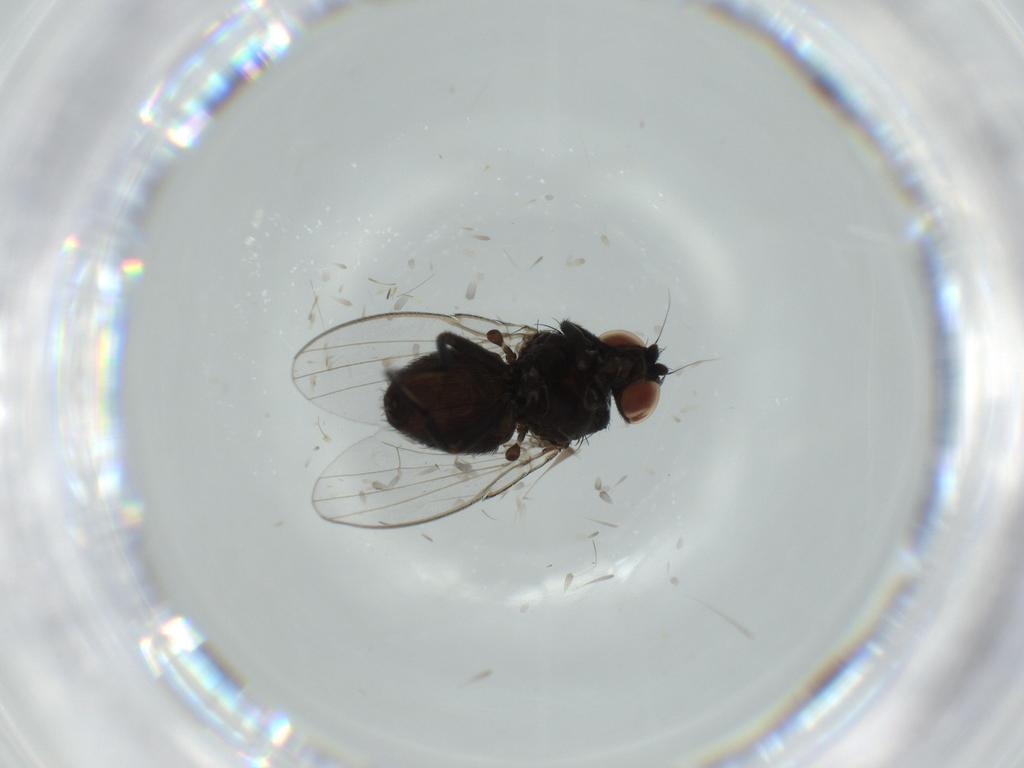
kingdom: Animalia
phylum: Arthropoda
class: Insecta
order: Diptera
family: Milichiidae
